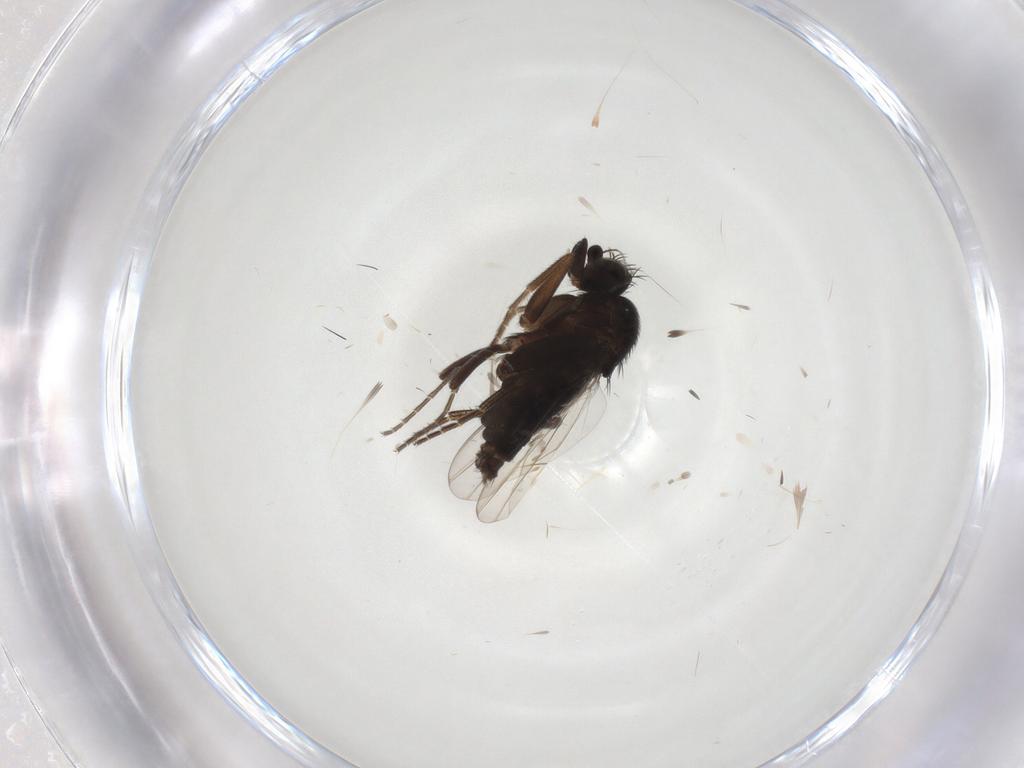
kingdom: Animalia
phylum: Arthropoda
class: Insecta
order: Diptera
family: Phoridae
